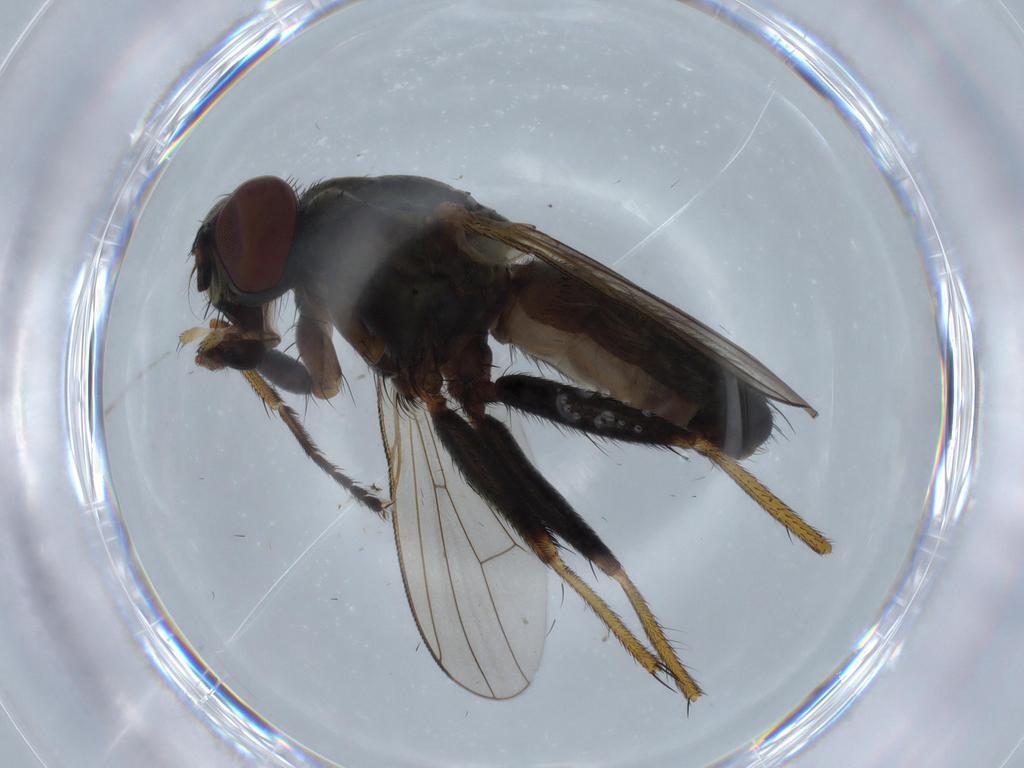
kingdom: Animalia
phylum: Arthropoda
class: Insecta
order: Diptera
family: Muscidae
